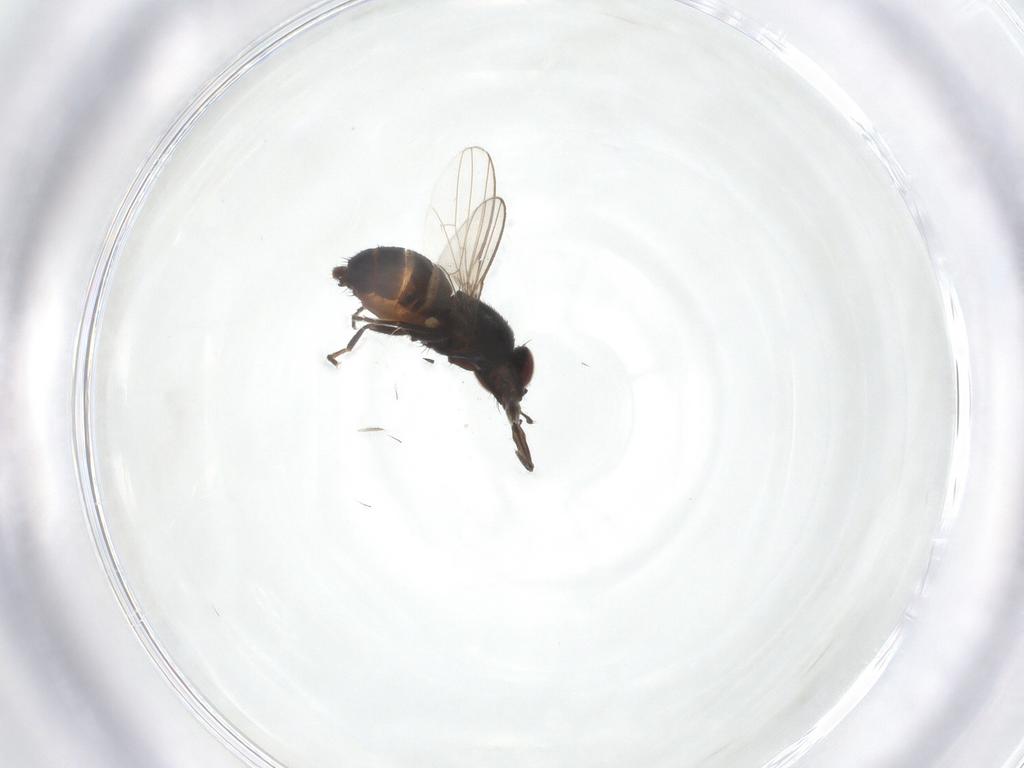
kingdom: Animalia
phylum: Arthropoda
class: Insecta
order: Diptera
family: Milichiidae
